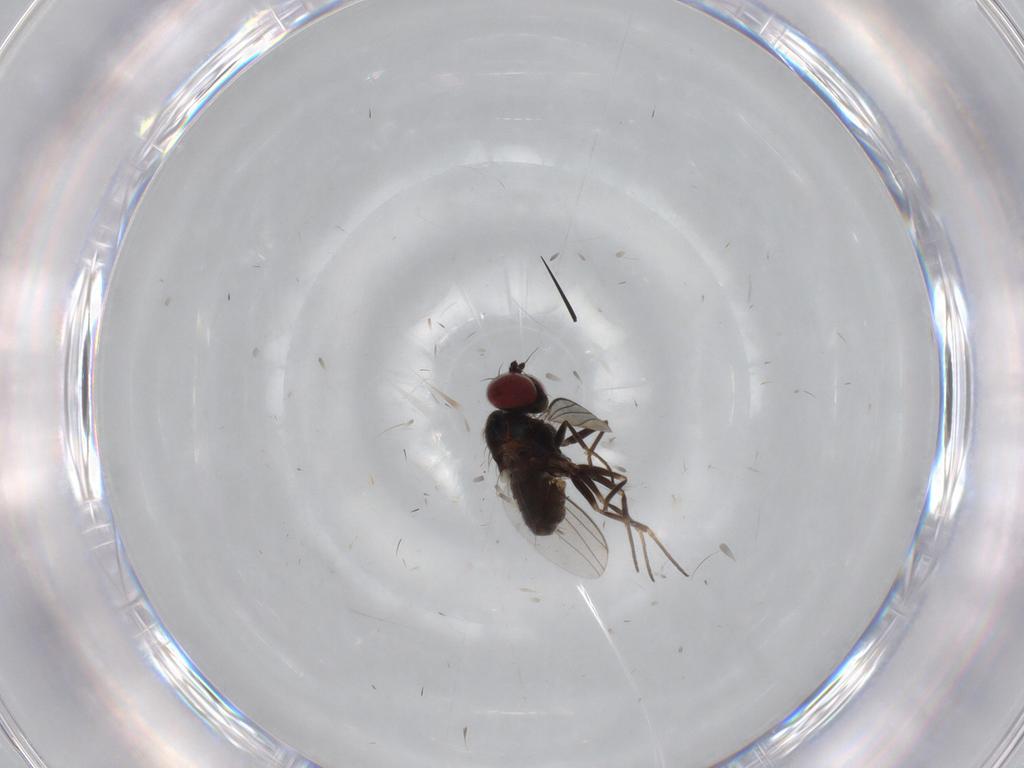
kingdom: Animalia
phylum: Arthropoda
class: Insecta
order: Diptera
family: Dolichopodidae
